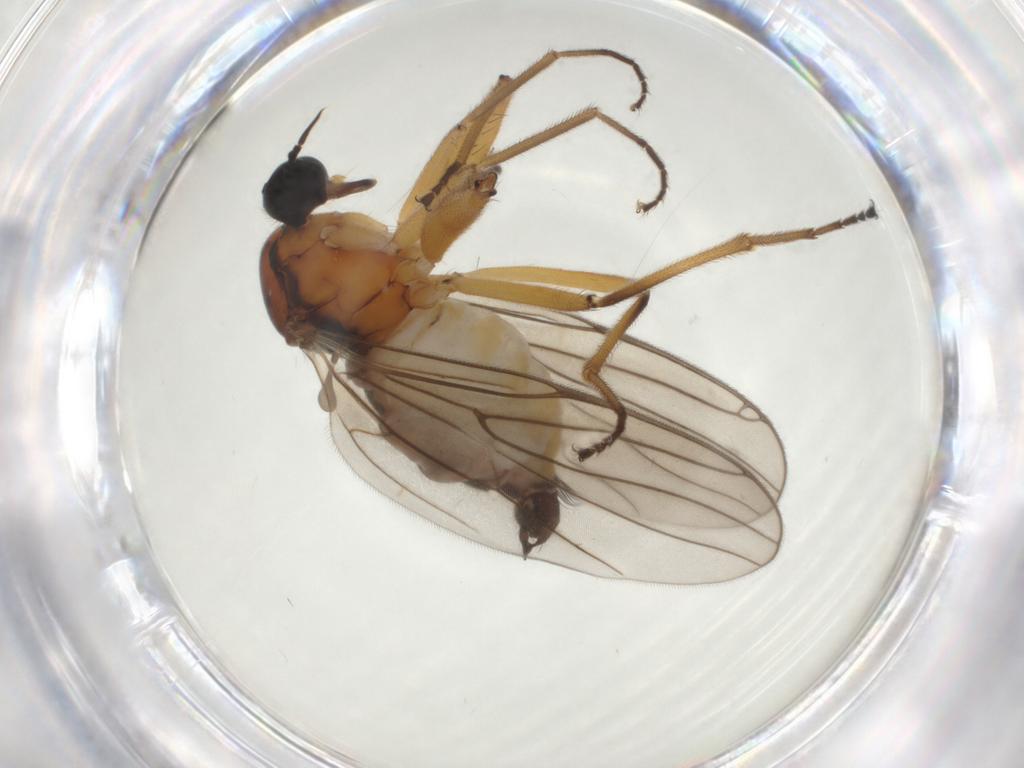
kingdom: Animalia
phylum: Arthropoda
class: Insecta
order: Diptera
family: Hybotidae
